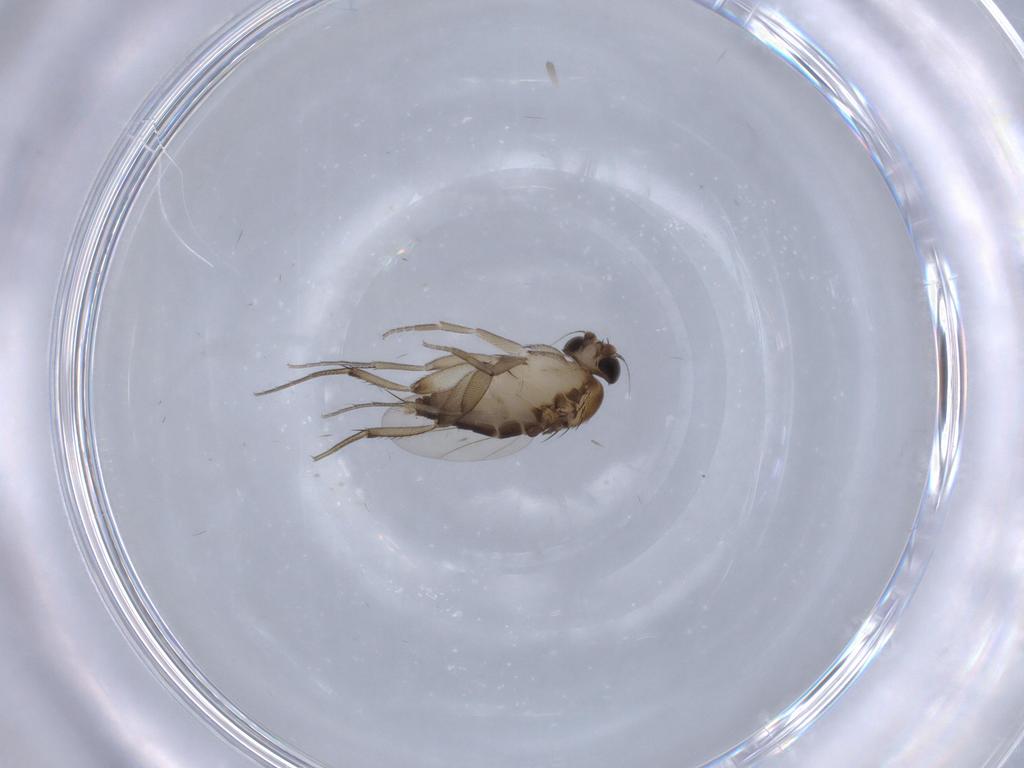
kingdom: Animalia
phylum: Arthropoda
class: Insecta
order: Diptera
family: Phoridae
